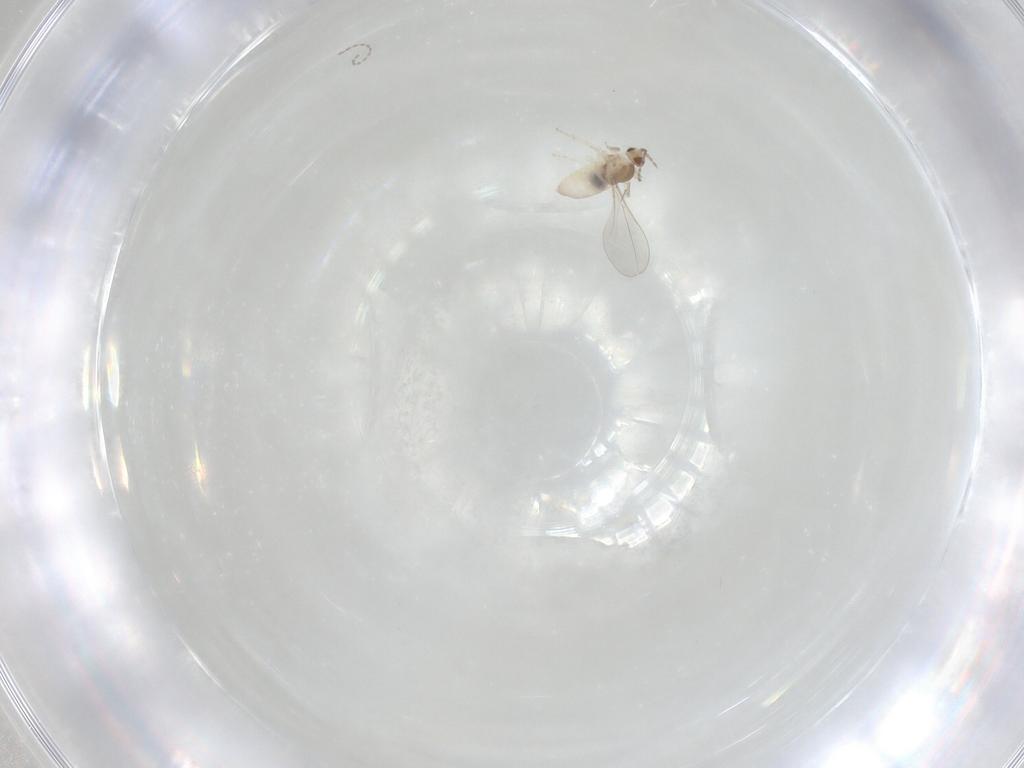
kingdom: Animalia
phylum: Arthropoda
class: Insecta
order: Diptera
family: Cecidomyiidae
